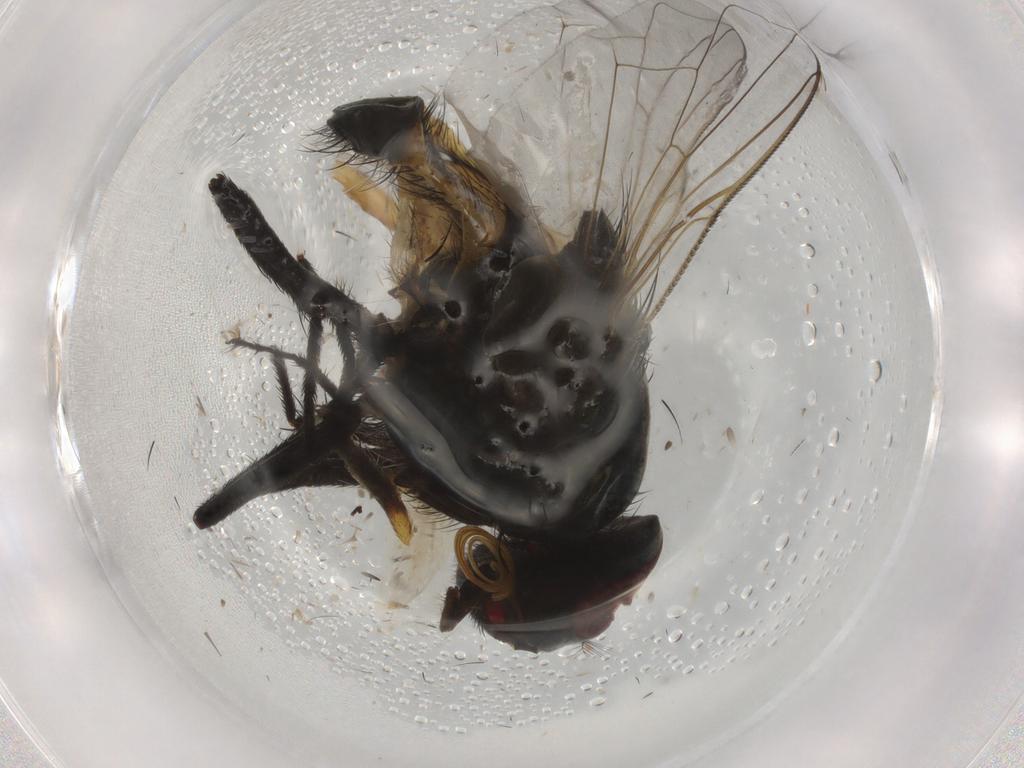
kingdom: Animalia
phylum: Arthropoda
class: Insecta
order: Diptera
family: Muscidae
